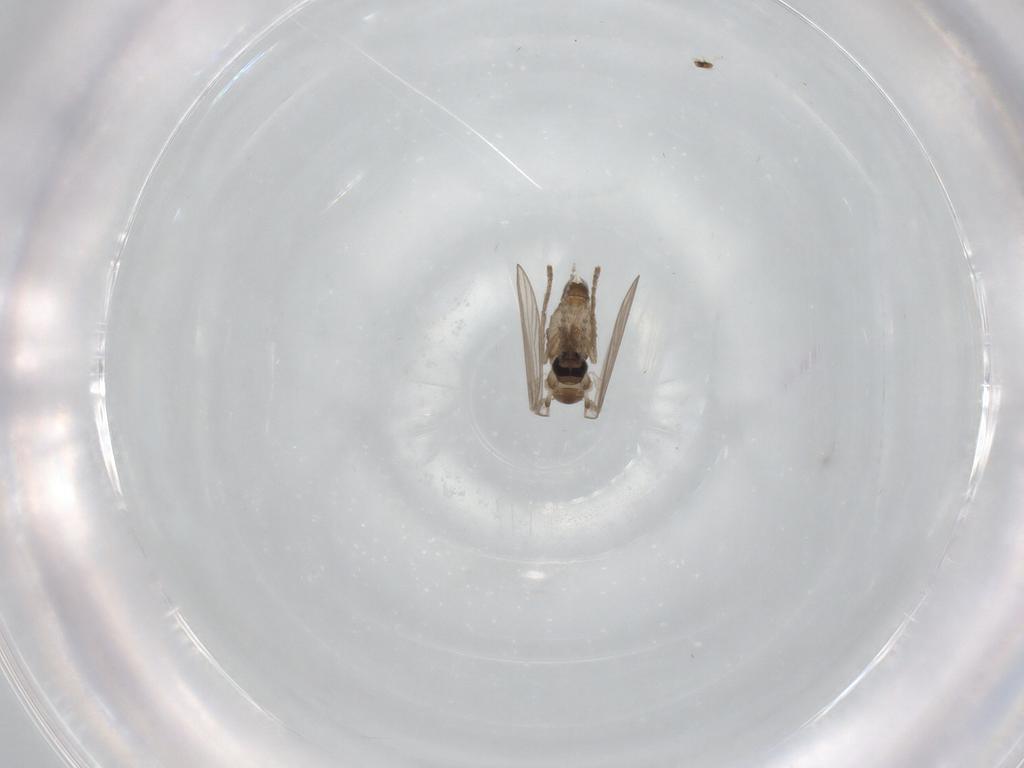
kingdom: Animalia
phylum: Arthropoda
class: Insecta
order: Diptera
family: Psychodidae
